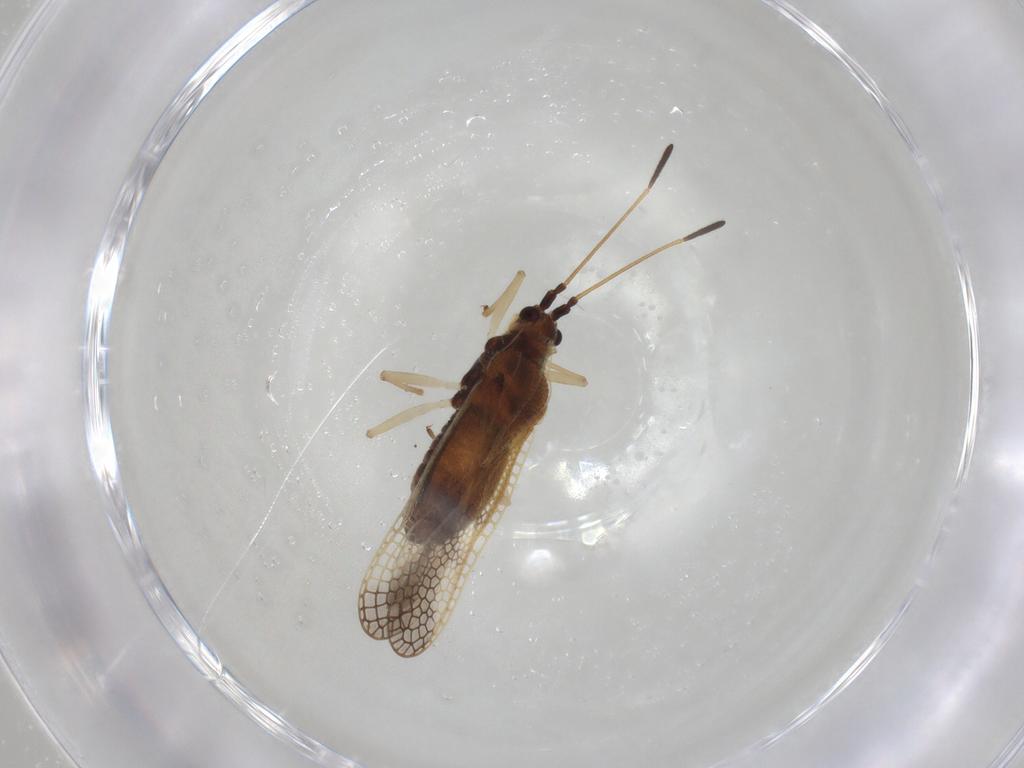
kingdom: Animalia
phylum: Arthropoda
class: Insecta
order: Hemiptera
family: Tingidae
